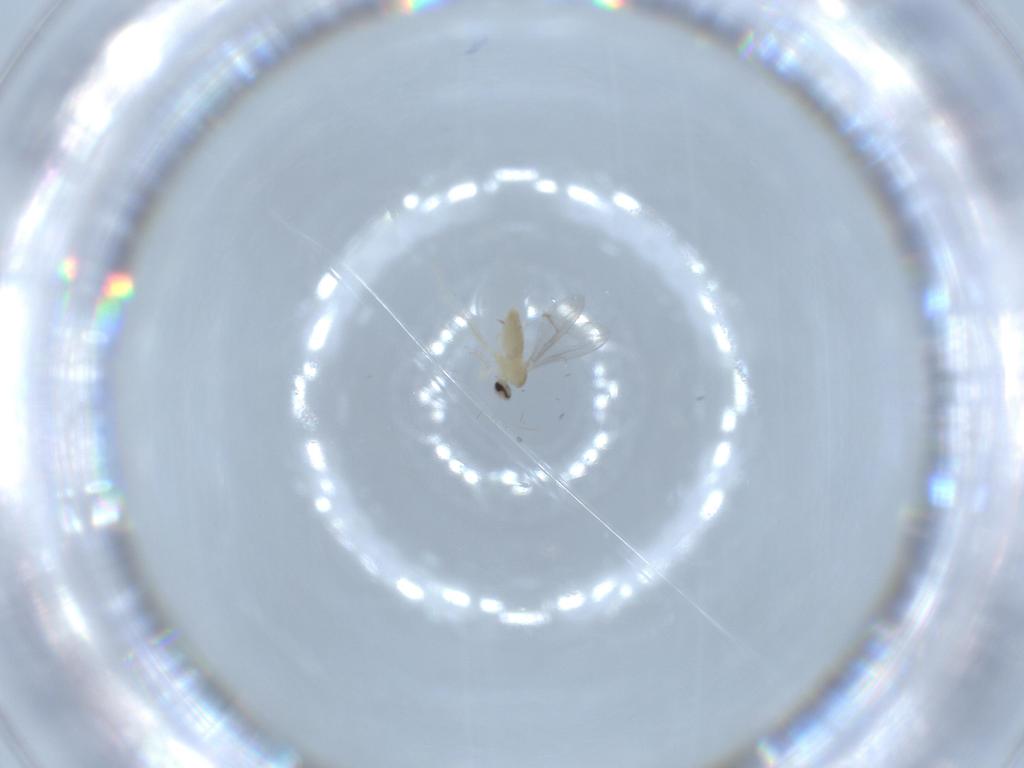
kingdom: Animalia
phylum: Arthropoda
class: Insecta
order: Diptera
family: Cecidomyiidae
